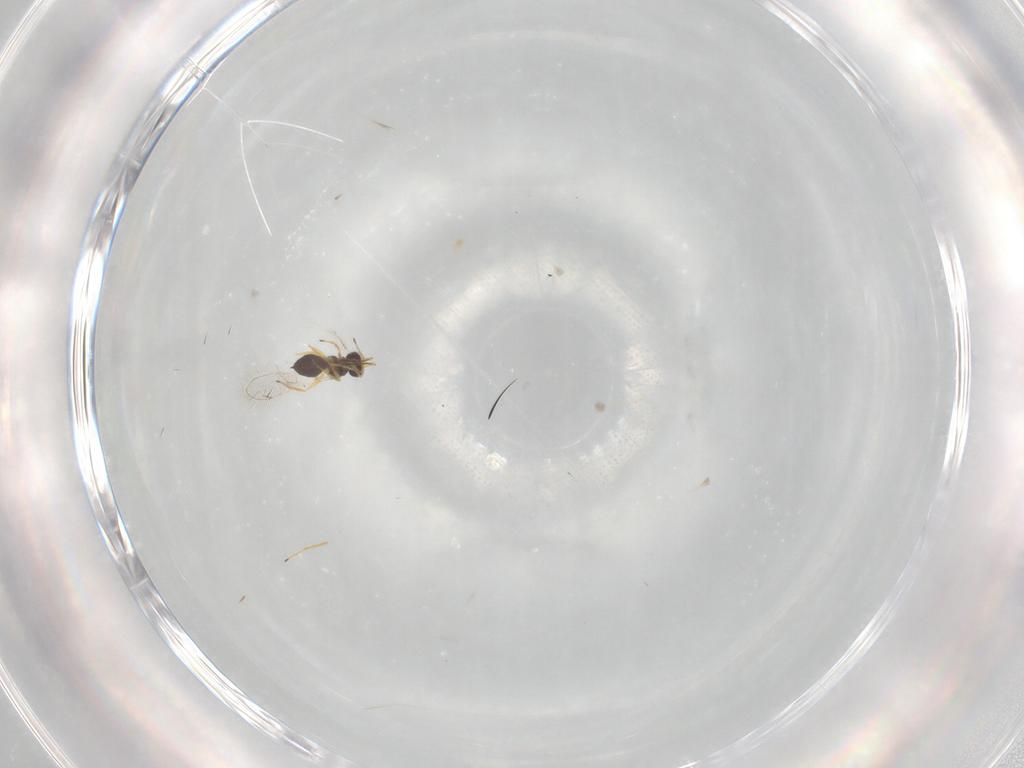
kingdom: Animalia
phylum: Arthropoda
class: Insecta
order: Hymenoptera
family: Mymaridae
